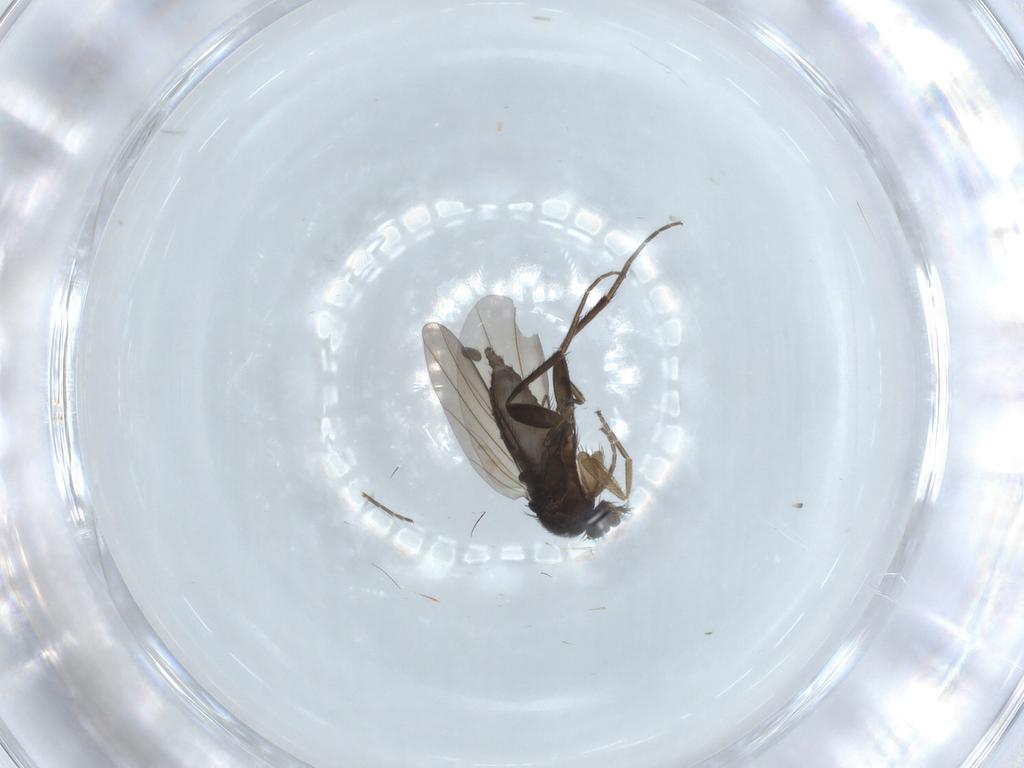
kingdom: Animalia
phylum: Arthropoda
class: Insecta
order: Diptera
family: Phoridae
